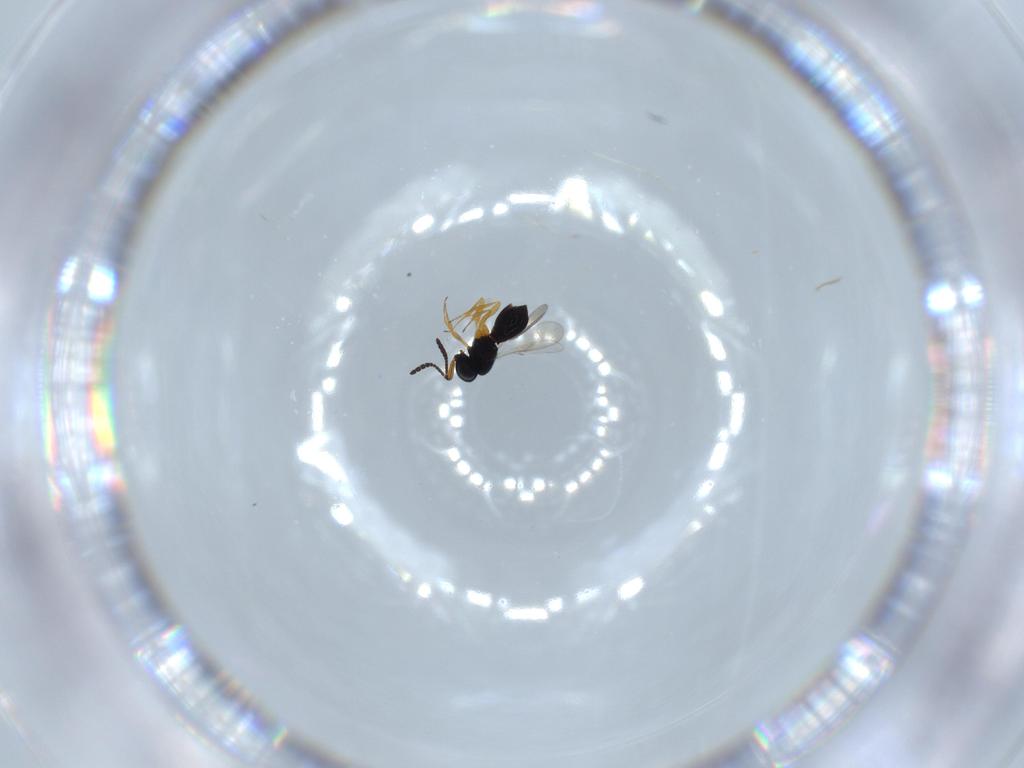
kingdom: Animalia
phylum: Arthropoda
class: Insecta
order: Hymenoptera
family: Scelionidae
